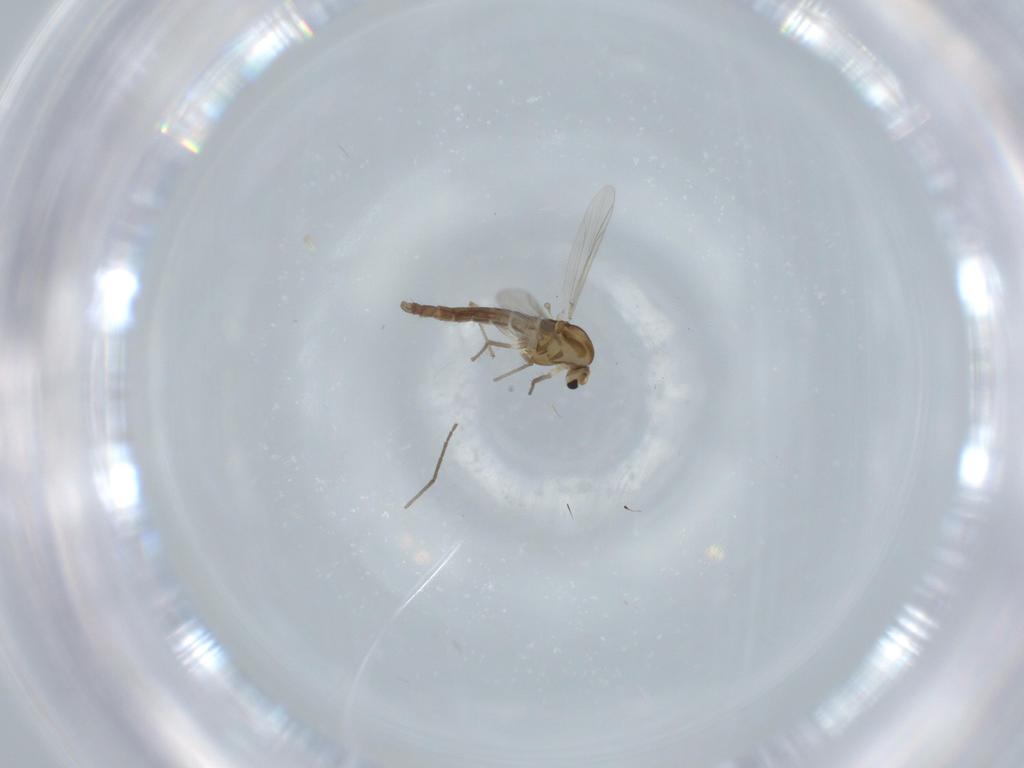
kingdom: Animalia
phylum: Arthropoda
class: Insecta
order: Diptera
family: Chironomidae
